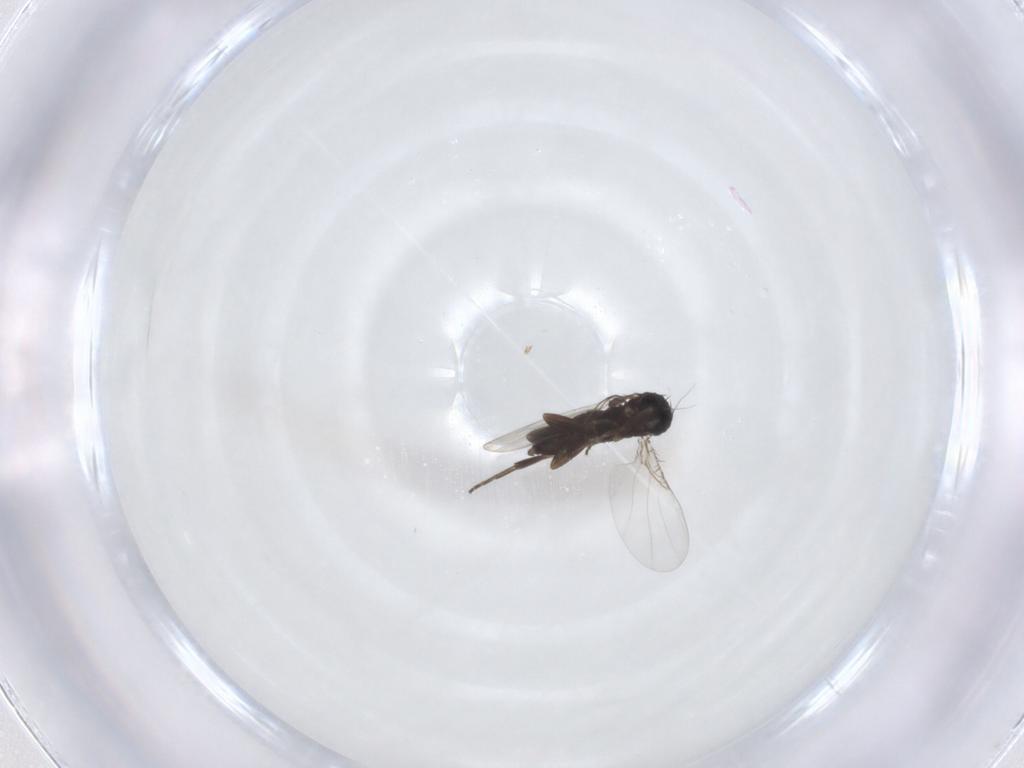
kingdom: Animalia
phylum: Arthropoda
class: Insecta
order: Diptera
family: Phoridae
